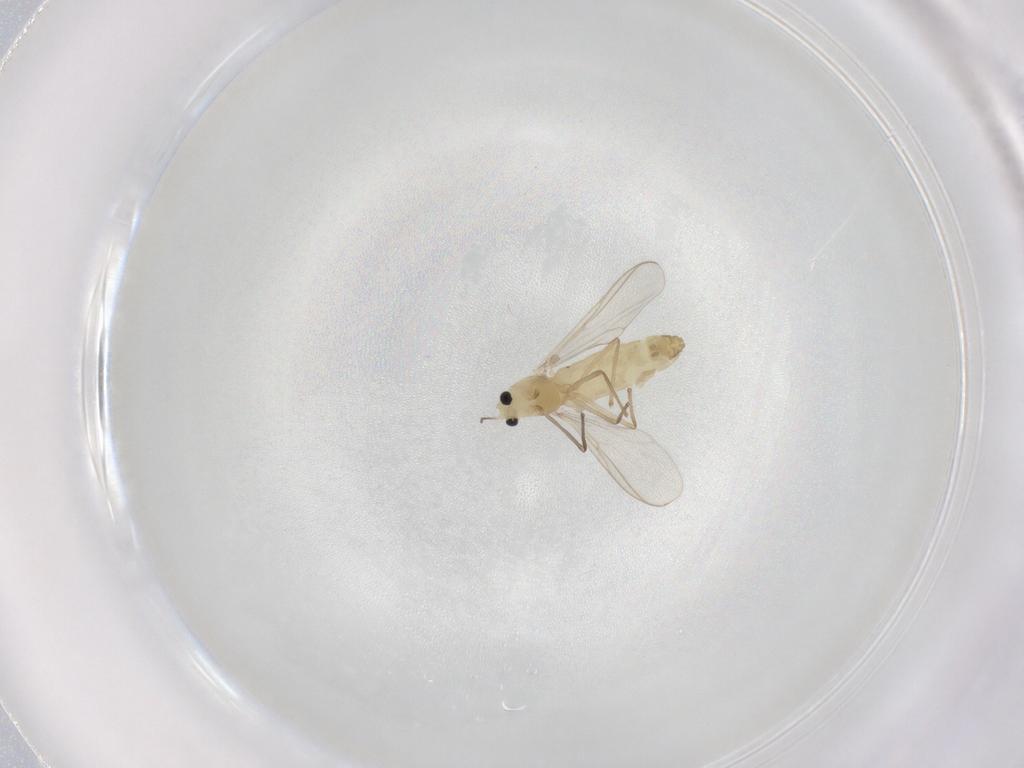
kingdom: Animalia
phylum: Arthropoda
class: Insecta
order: Diptera
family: Chironomidae
